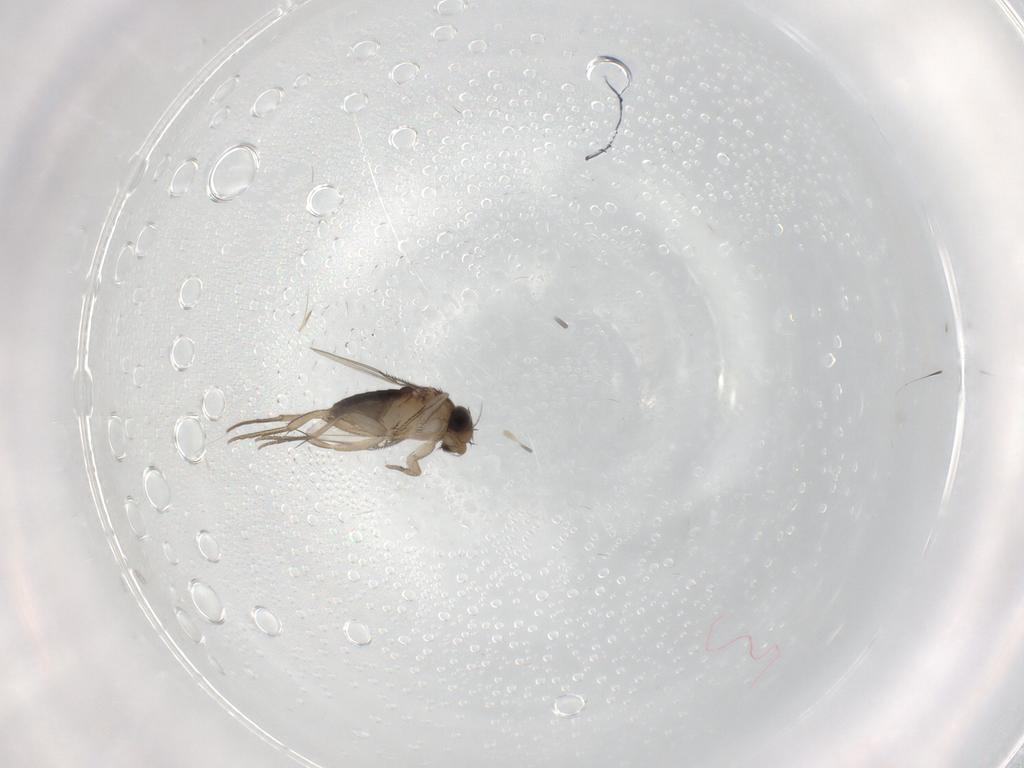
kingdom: Animalia
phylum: Arthropoda
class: Insecta
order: Diptera
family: Phoridae
